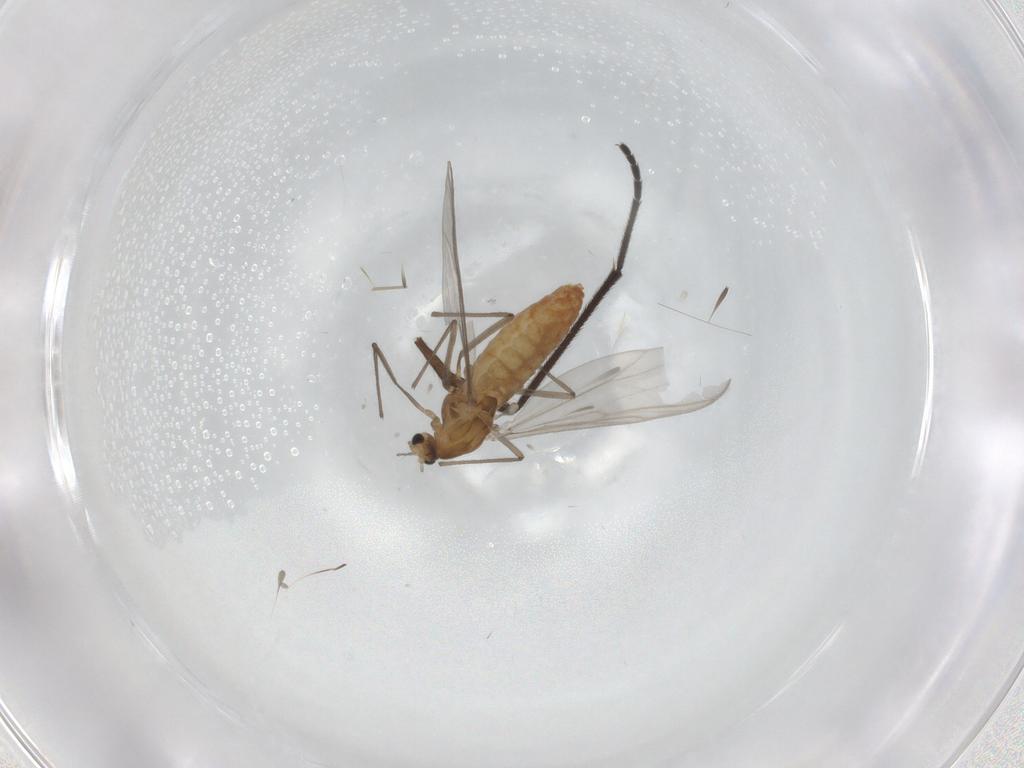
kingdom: Animalia
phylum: Arthropoda
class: Insecta
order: Diptera
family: Chironomidae
